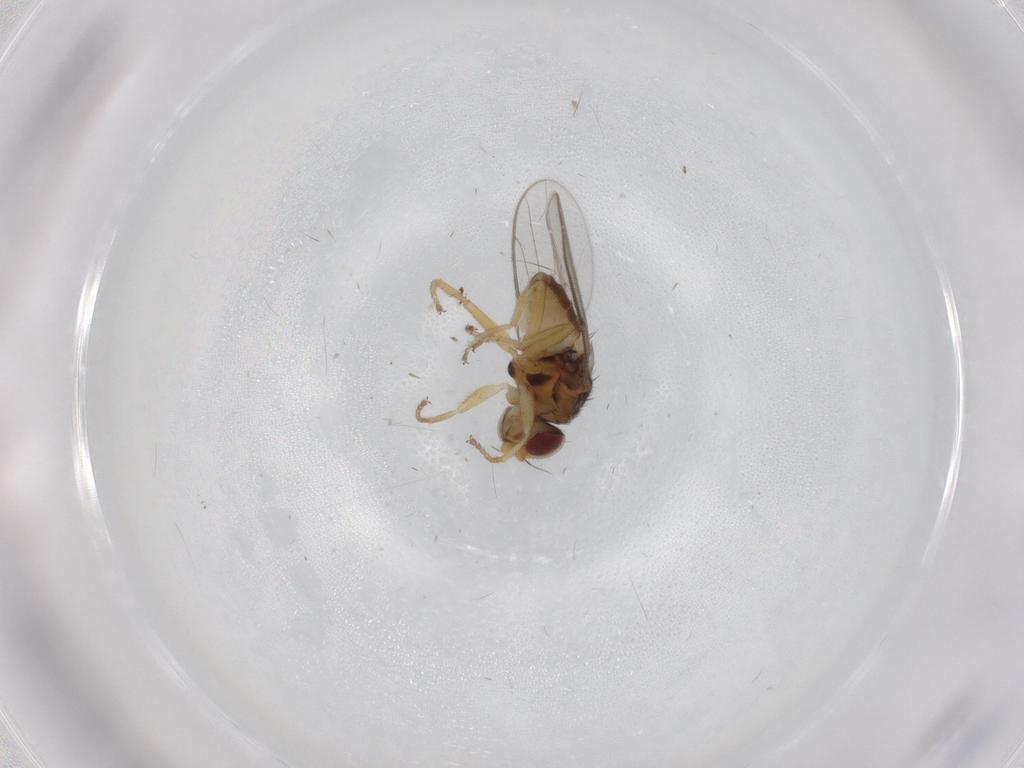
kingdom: Animalia
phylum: Arthropoda
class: Insecta
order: Diptera
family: Chloropidae
